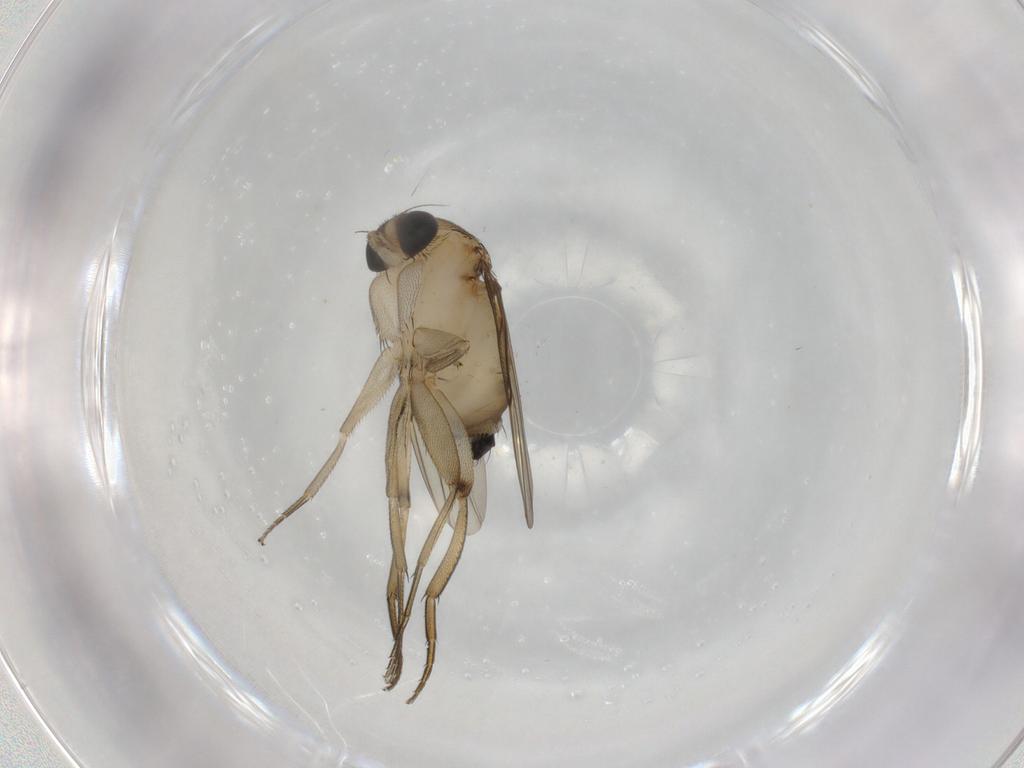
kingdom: Animalia
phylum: Arthropoda
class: Insecta
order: Diptera
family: Phoridae
